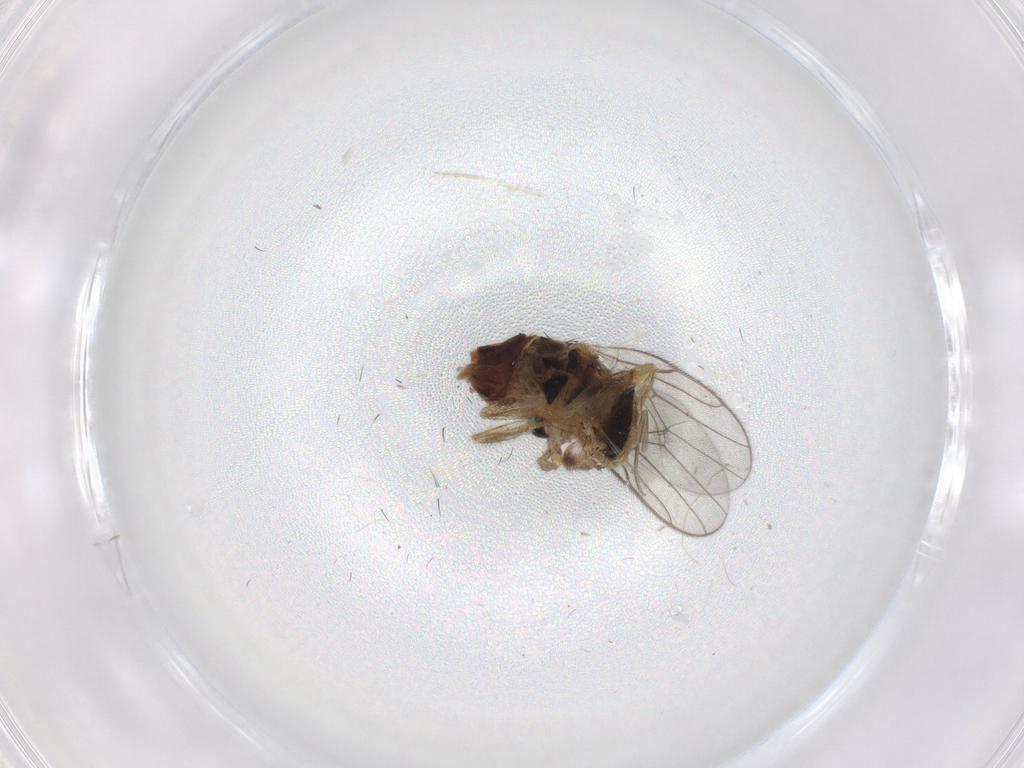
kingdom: Animalia
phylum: Arthropoda
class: Insecta
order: Diptera
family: Chloropidae
